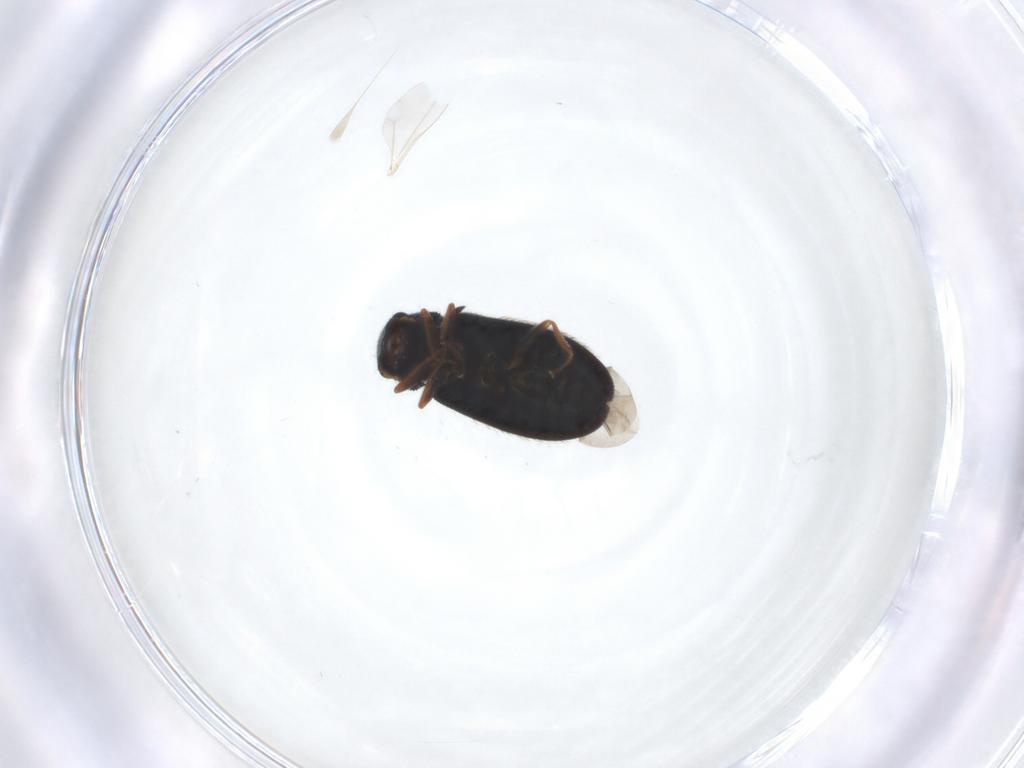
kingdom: Animalia
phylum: Arthropoda
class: Insecta
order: Coleoptera
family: Melyridae
